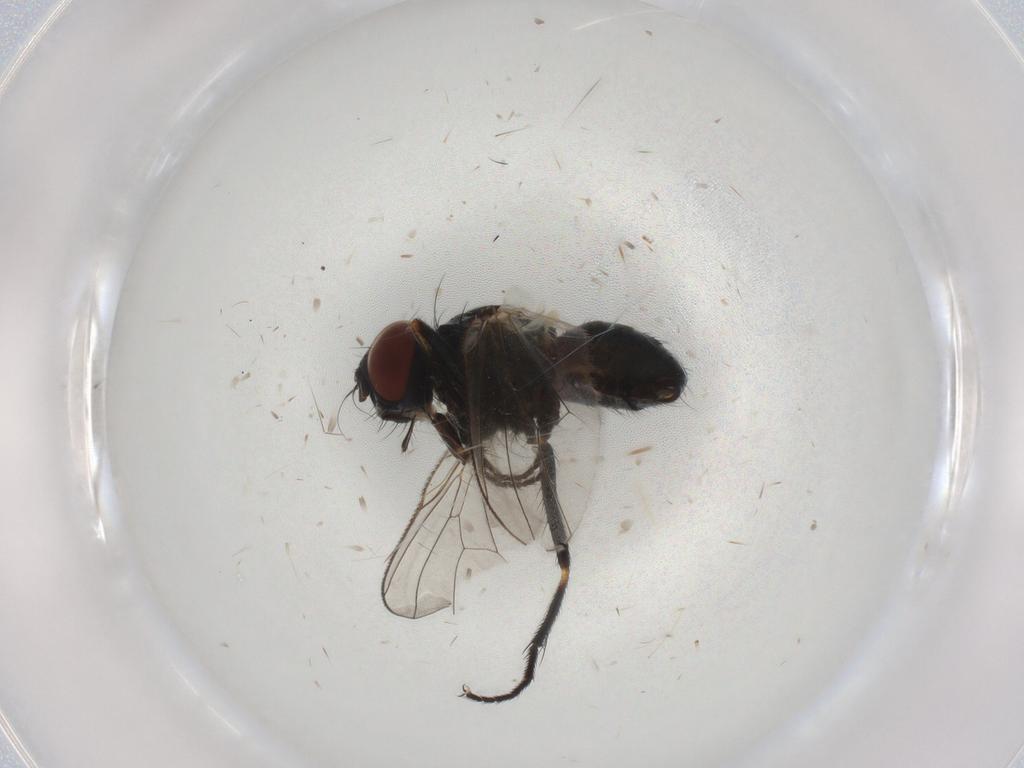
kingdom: Animalia
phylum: Arthropoda
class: Insecta
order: Diptera
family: Muscidae
